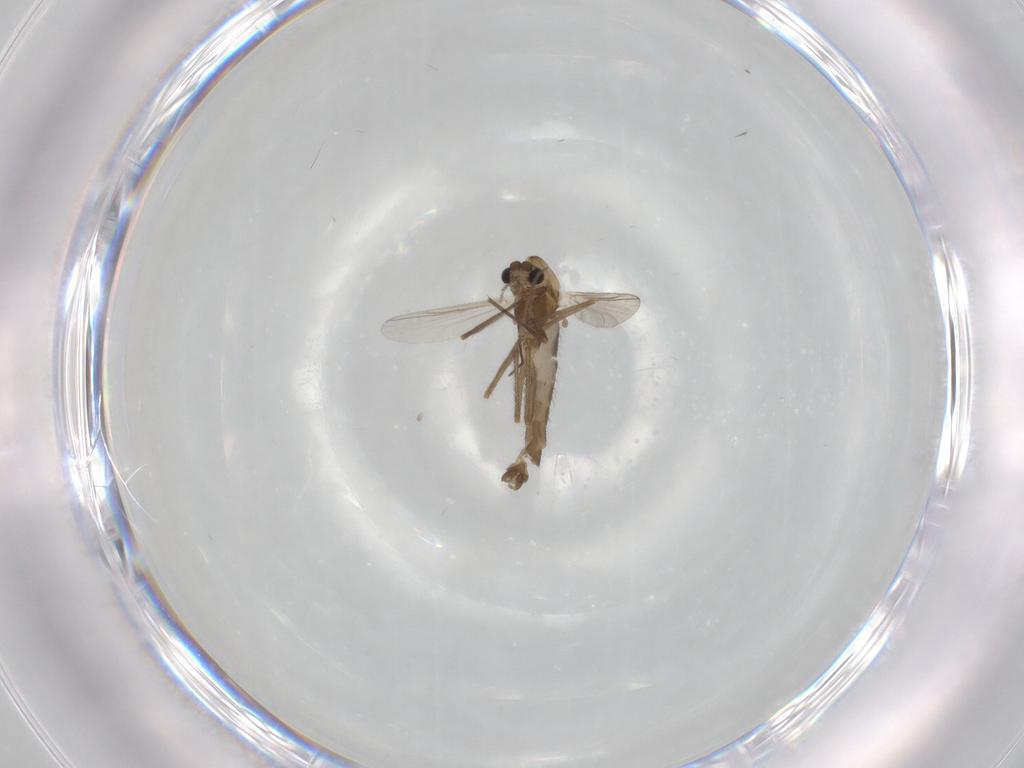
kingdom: Animalia
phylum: Arthropoda
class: Insecta
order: Diptera
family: Chironomidae
